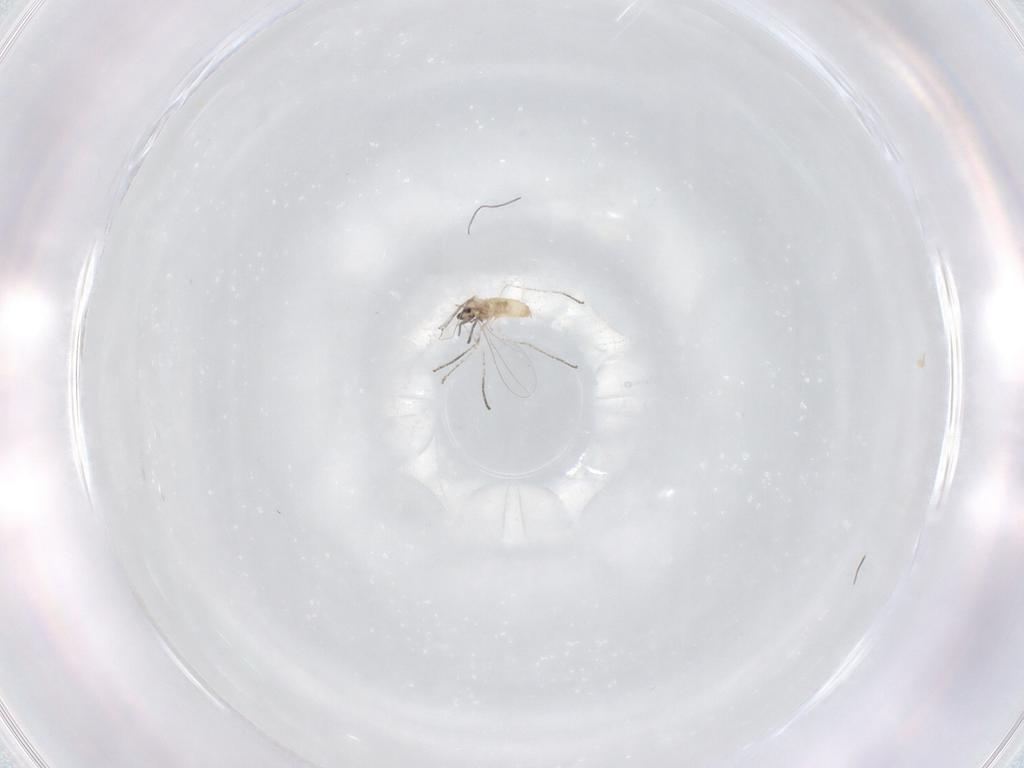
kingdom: Animalia
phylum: Arthropoda
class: Insecta
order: Diptera
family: Cecidomyiidae
